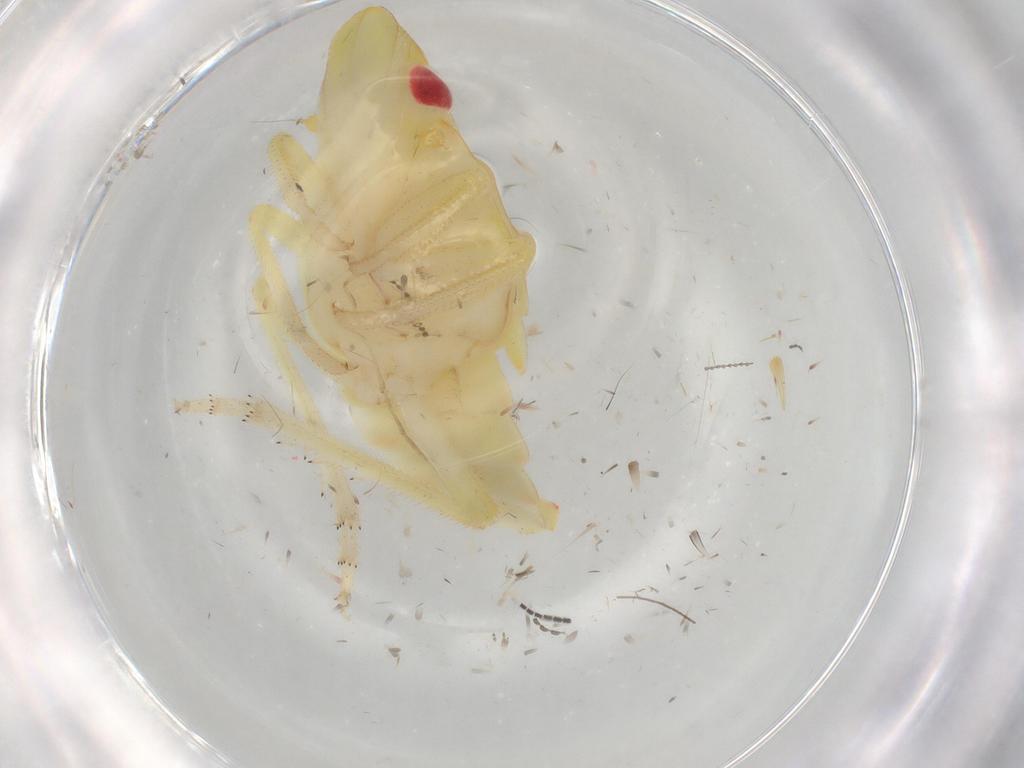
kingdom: Animalia
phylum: Arthropoda
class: Insecta
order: Hemiptera
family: Tropiduchidae
